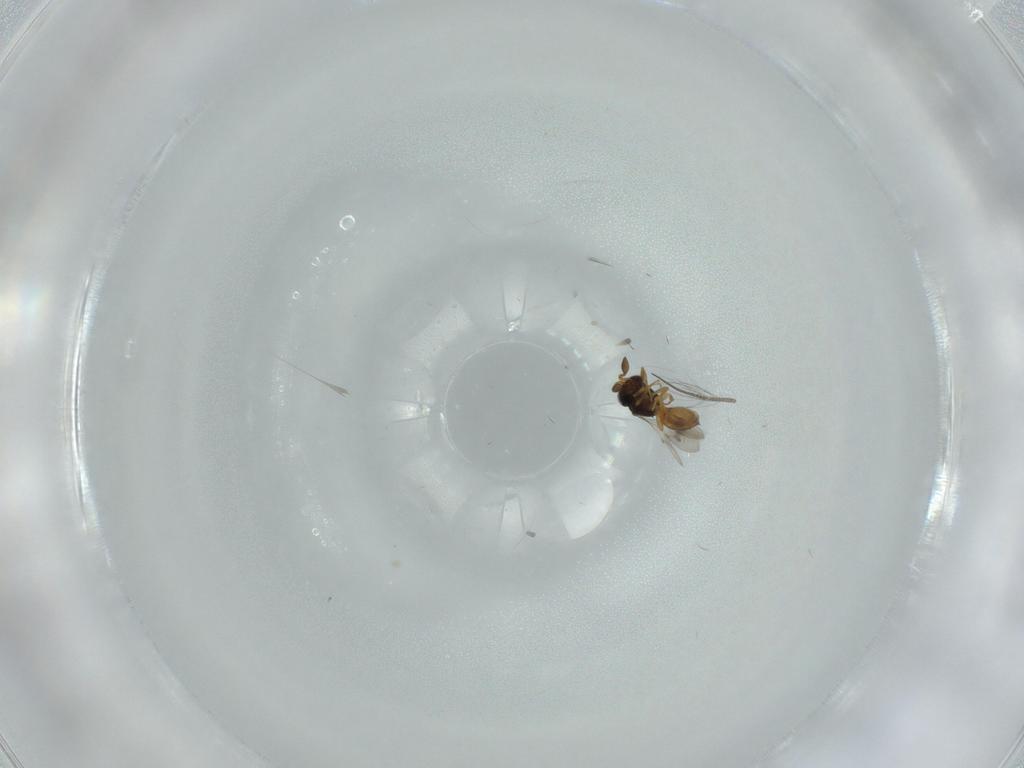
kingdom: Animalia
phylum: Arthropoda
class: Insecta
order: Hymenoptera
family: Scelionidae
